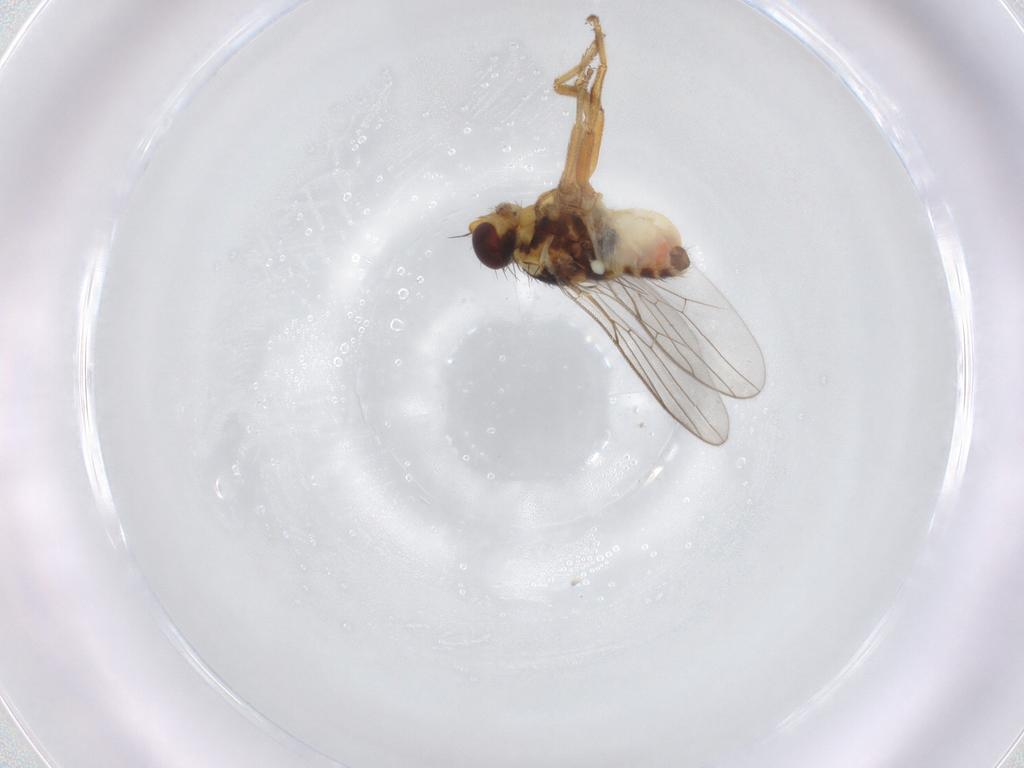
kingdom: Animalia
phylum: Arthropoda
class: Insecta
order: Diptera
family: Chloropidae
